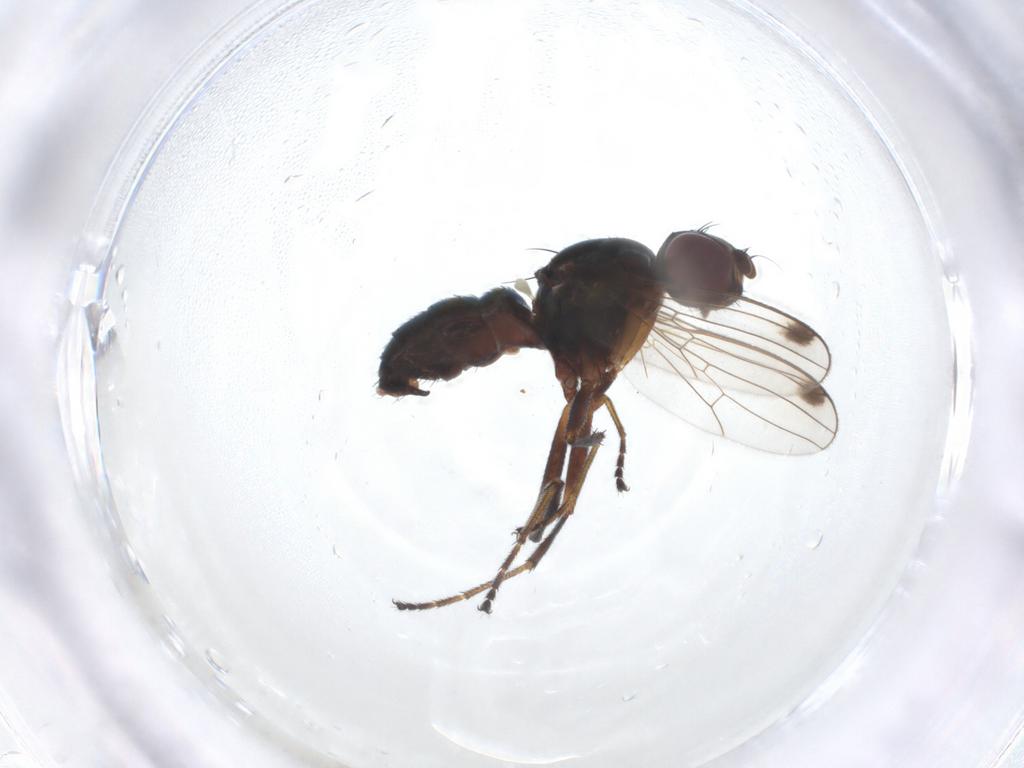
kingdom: Animalia
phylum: Arthropoda
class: Insecta
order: Diptera
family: Sepsidae
